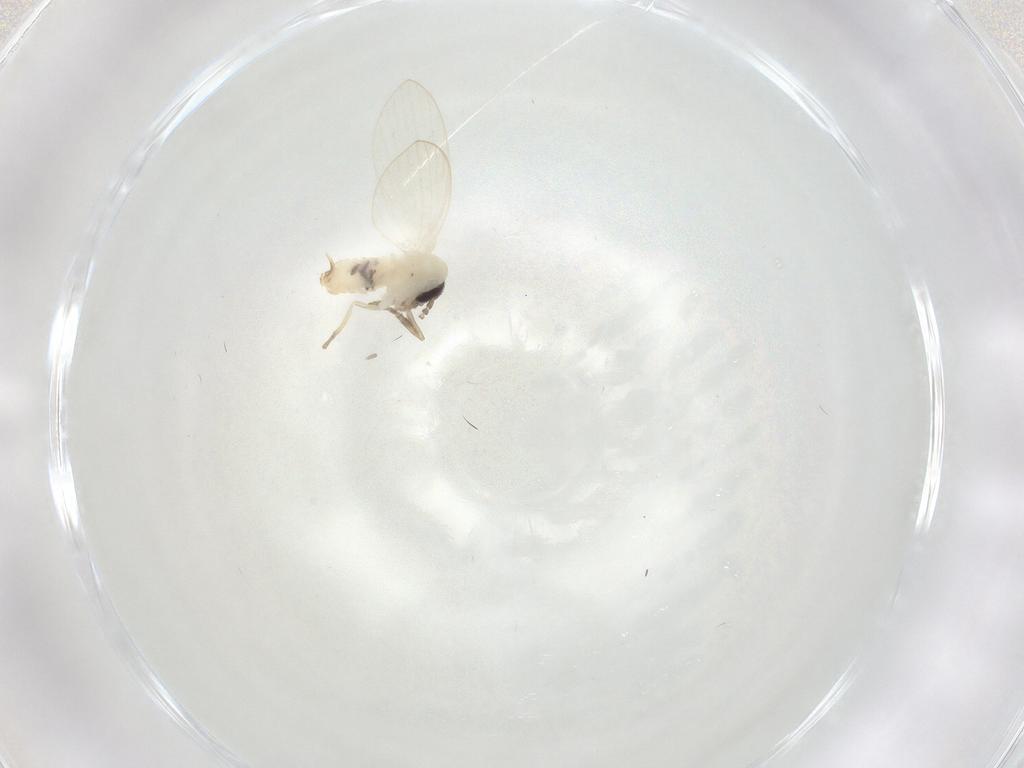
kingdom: Animalia
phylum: Arthropoda
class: Insecta
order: Diptera
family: Psychodidae
